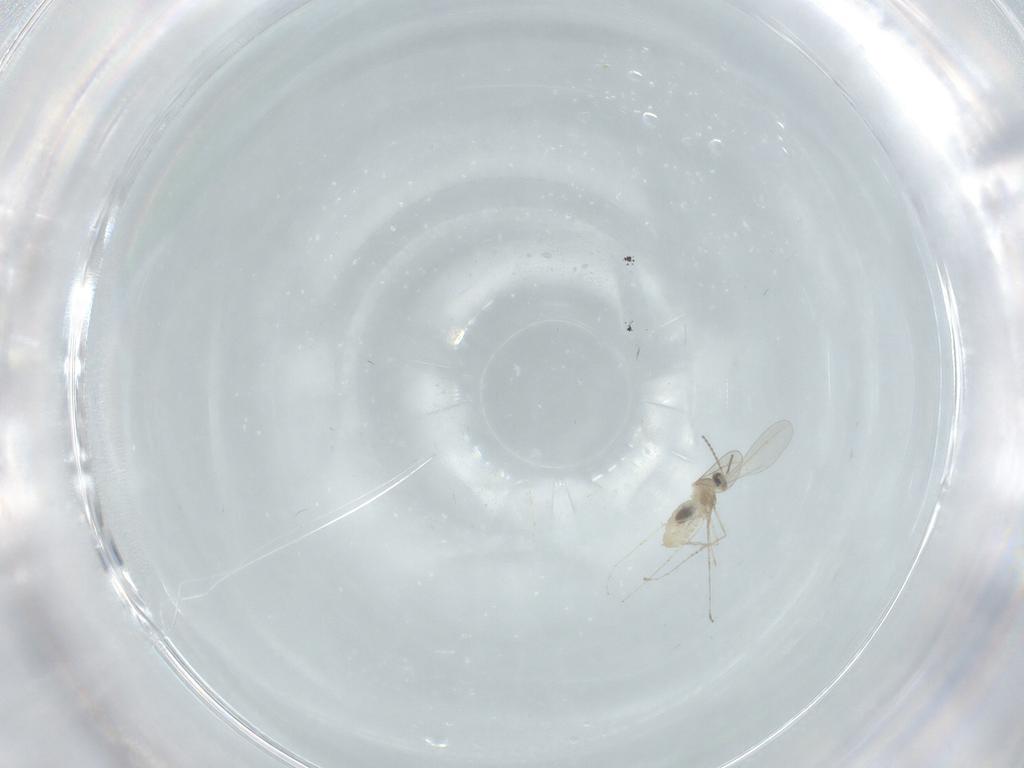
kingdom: Animalia
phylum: Arthropoda
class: Insecta
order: Diptera
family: Cecidomyiidae
